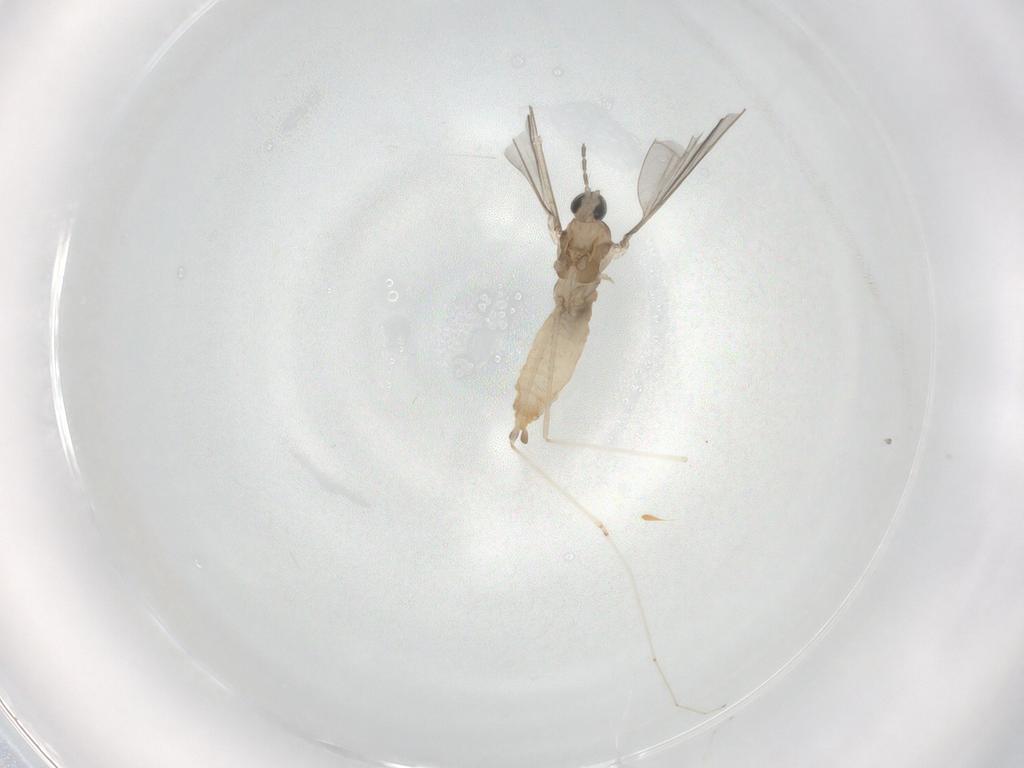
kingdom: Animalia
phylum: Arthropoda
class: Insecta
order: Diptera
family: Cecidomyiidae
